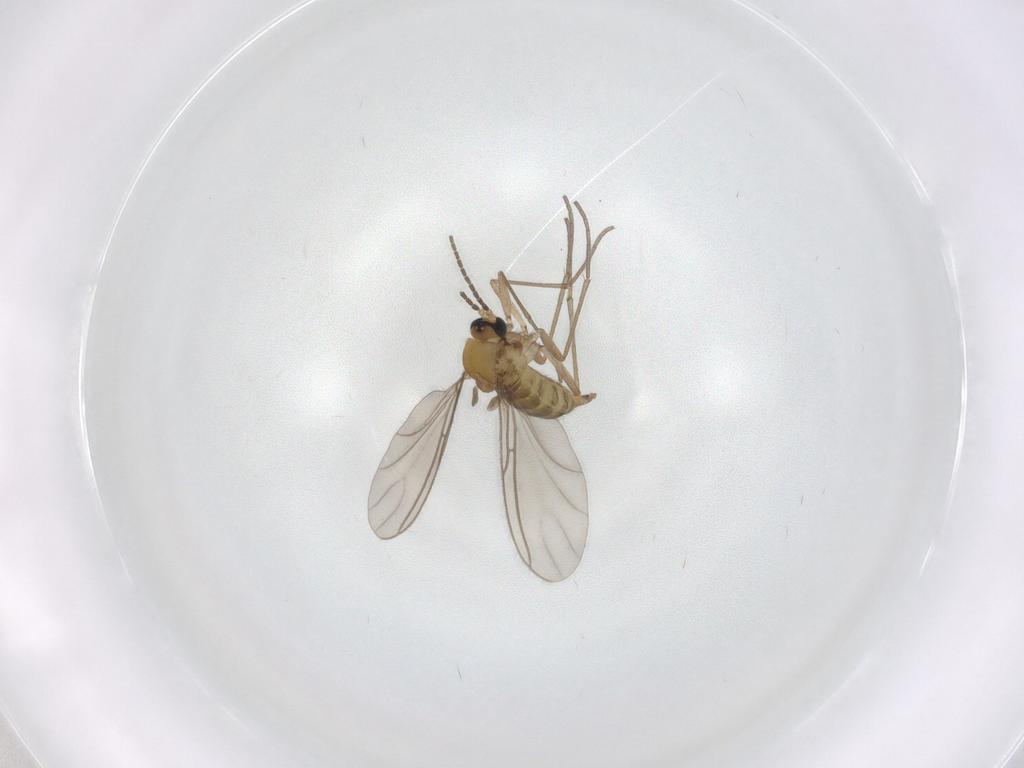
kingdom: Animalia
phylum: Arthropoda
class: Insecta
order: Diptera
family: Sciaridae
